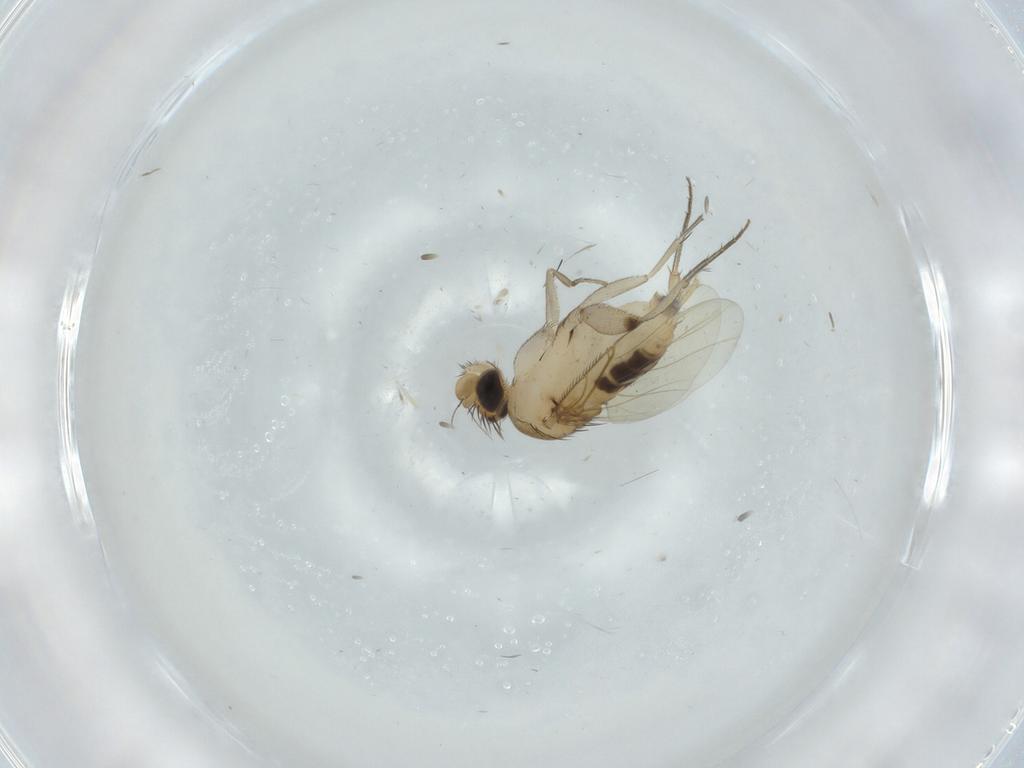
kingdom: Animalia
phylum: Arthropoda
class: Insecta
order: Diptera
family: Phoridae
